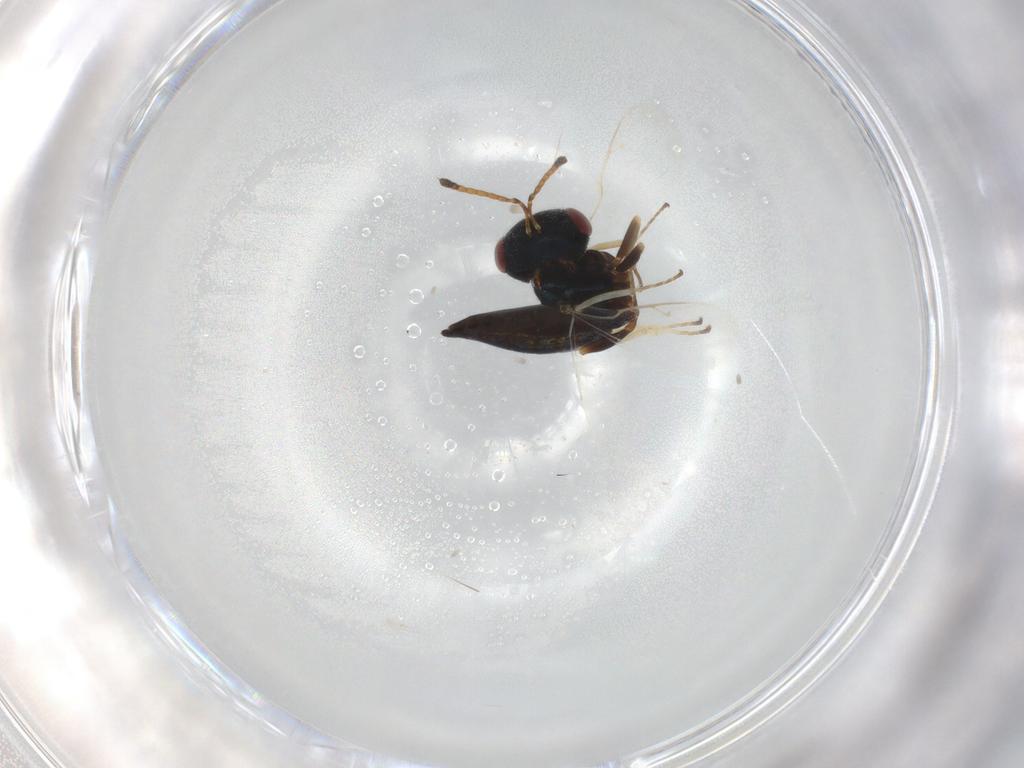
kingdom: Animalia
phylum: Arthropoda
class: Insecta
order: Hymenoptera
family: Pteromalidae
